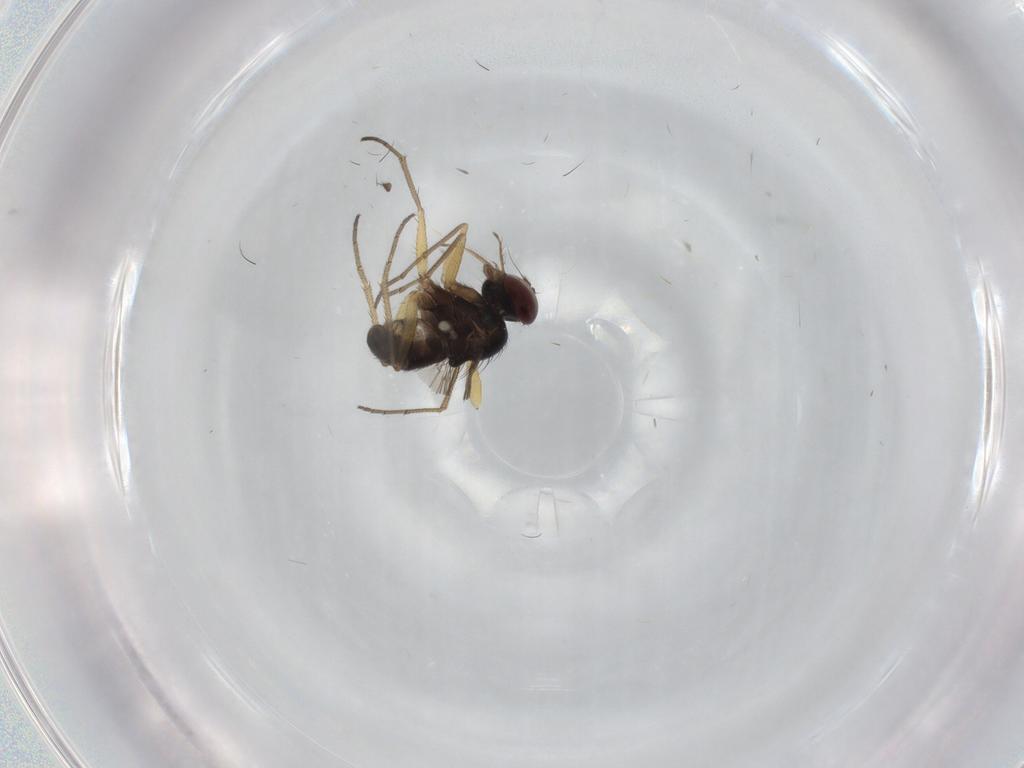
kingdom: Animalia
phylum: Arthropoda
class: Insecta
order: Diptera
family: Dolichopodidae
